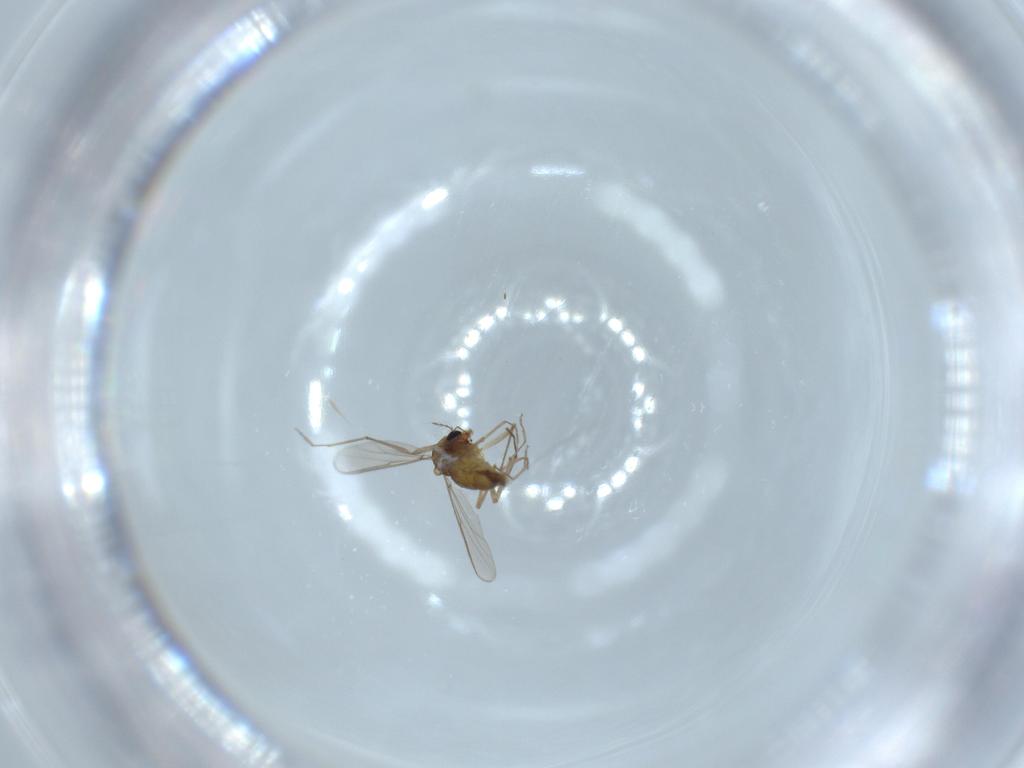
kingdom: Animalia
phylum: Arthropoda
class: Insecta
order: Diptera
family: Chironomidae
